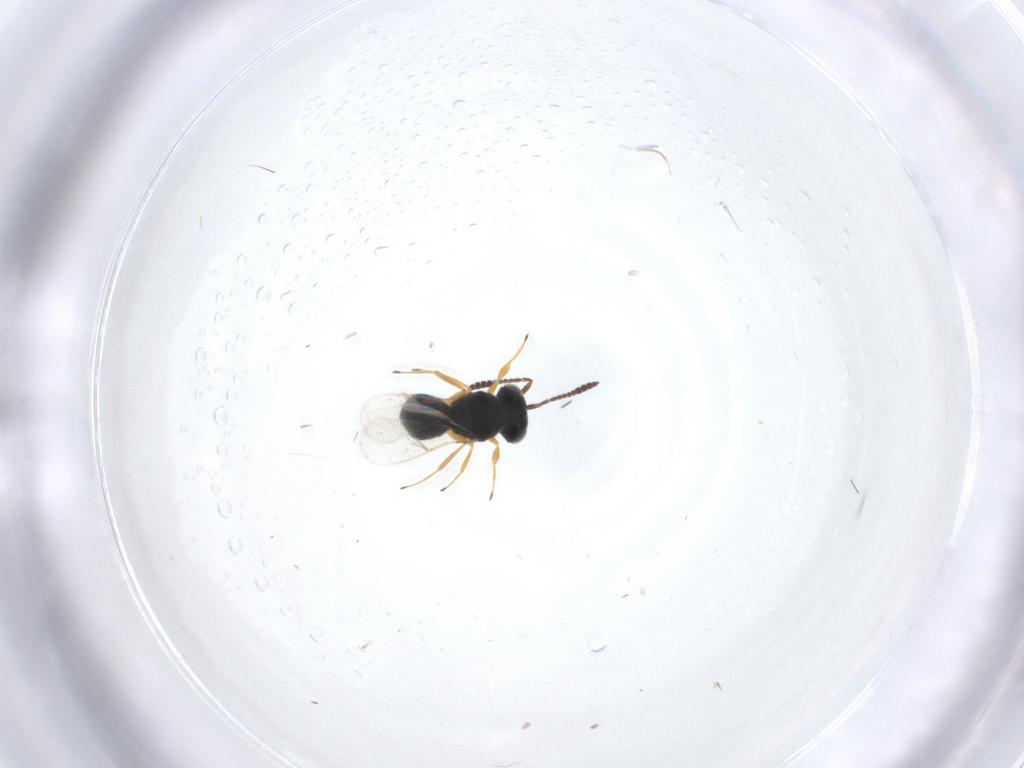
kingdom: Animalia
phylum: Arthropoda
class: Insecta
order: Hymenoptera
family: Scelionidae
